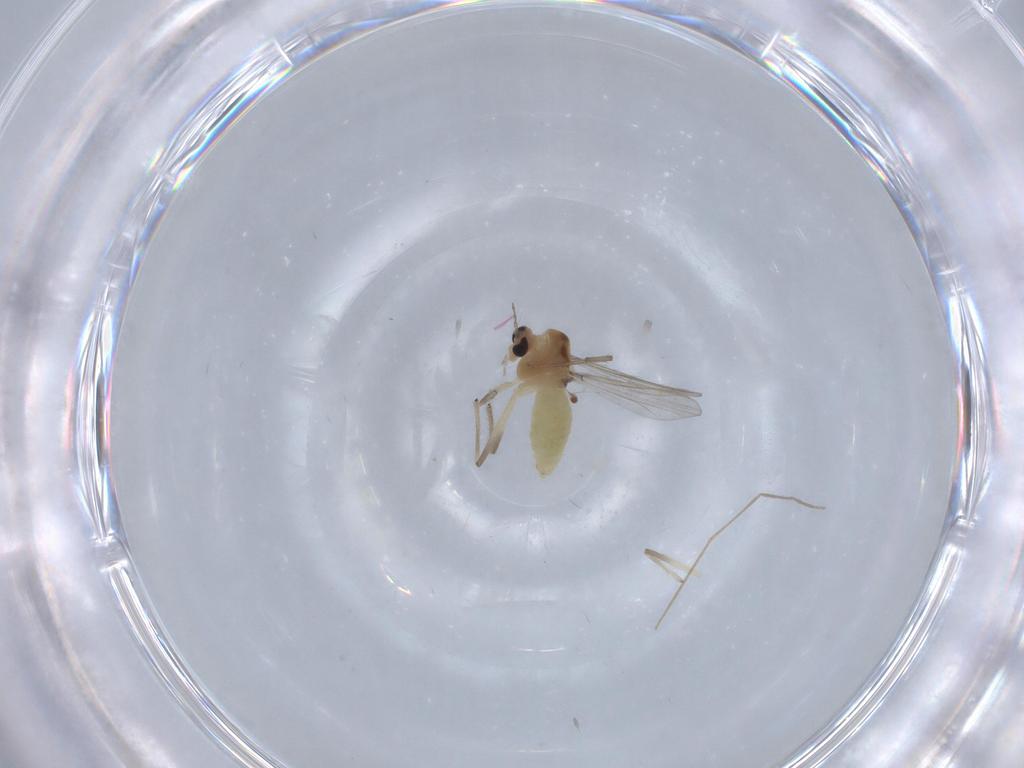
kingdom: Animalia
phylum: Arthropoda
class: Insecta
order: Diptera
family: Chironomidae
